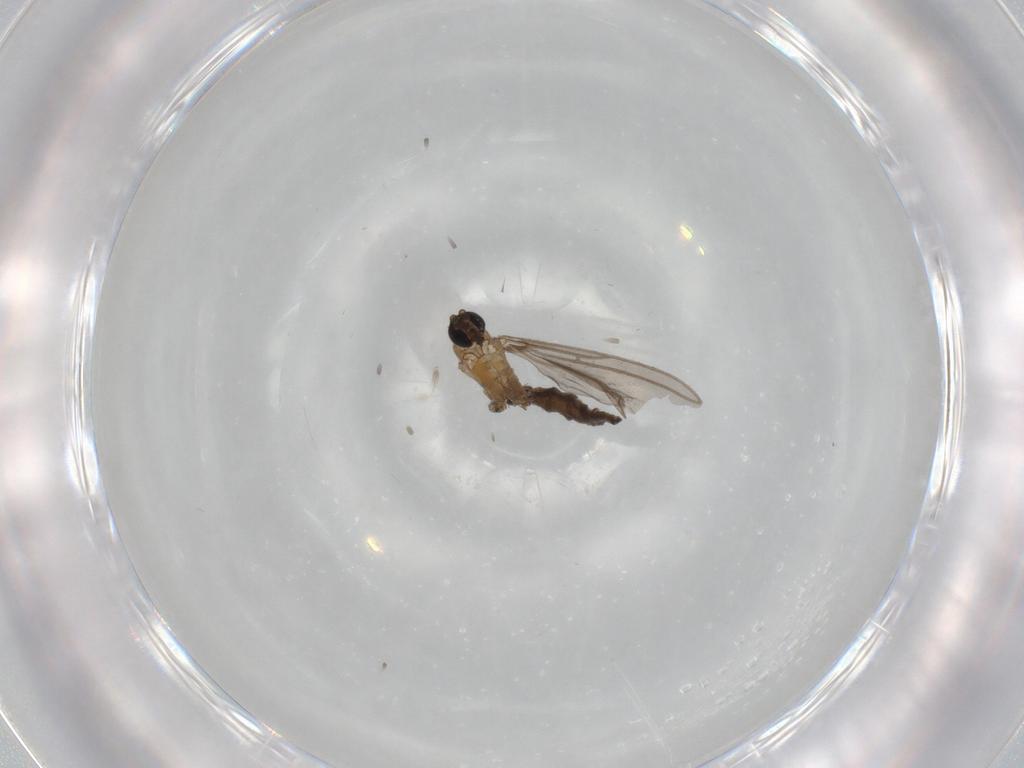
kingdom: Animalia
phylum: Arthropoda
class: Insecta
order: Diptera
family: Sciaridae
